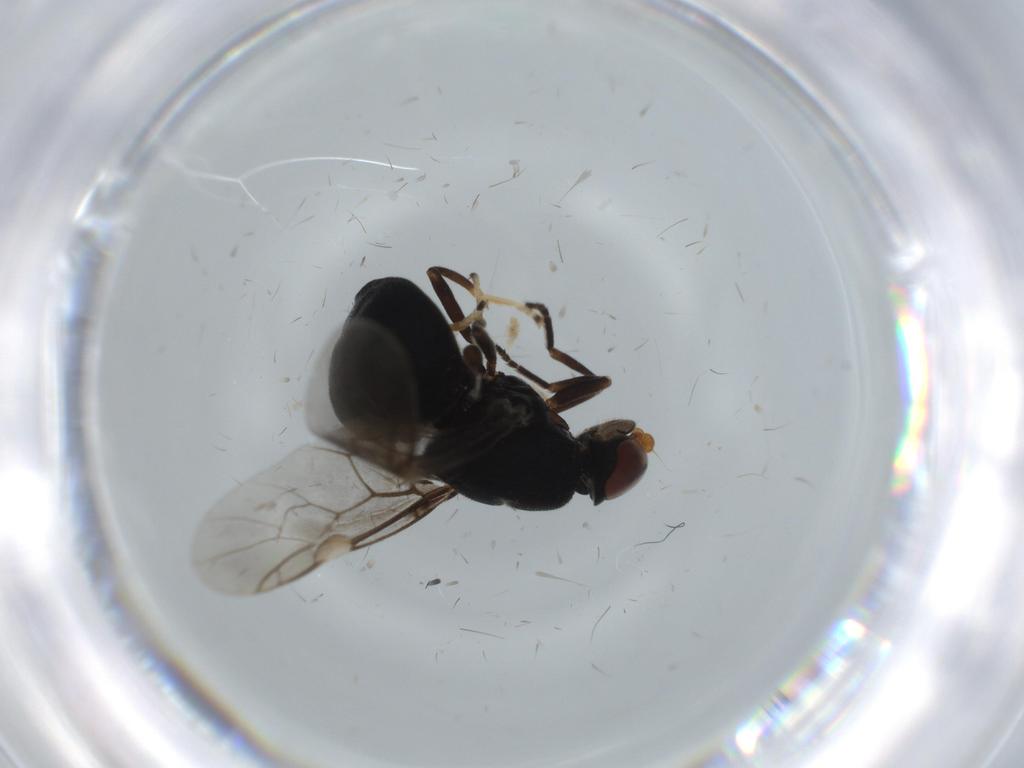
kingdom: Animalia
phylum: Arthropoda
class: Insecta
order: Diptera
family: Stratiomyidae
